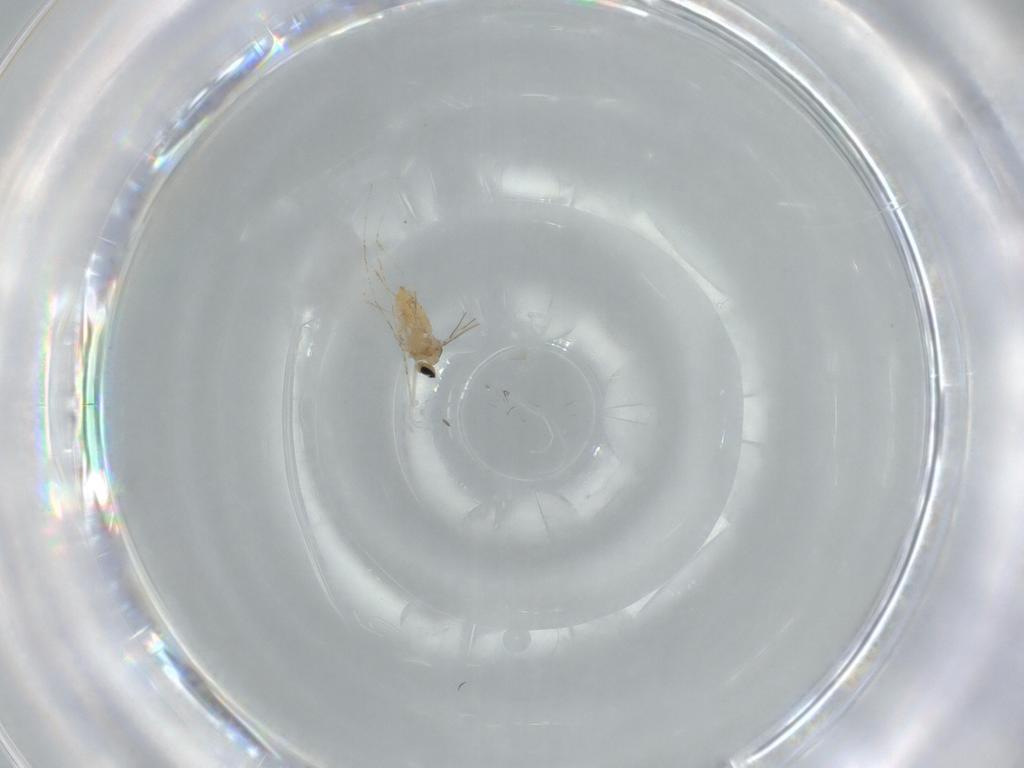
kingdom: Animalia
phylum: Arthropoda
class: Insecta
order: Diptera
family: Cecidomyiidae
